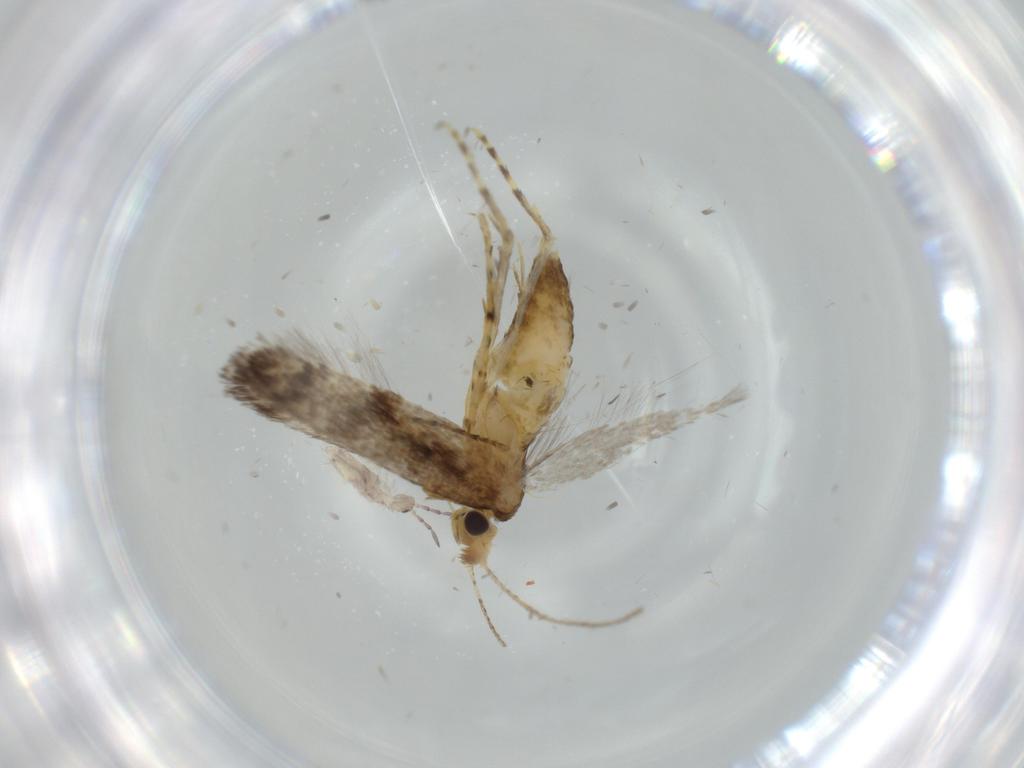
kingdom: Animalia
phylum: Arthropoda
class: Insecta
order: Lepidoptera
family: Argyresthiidae
